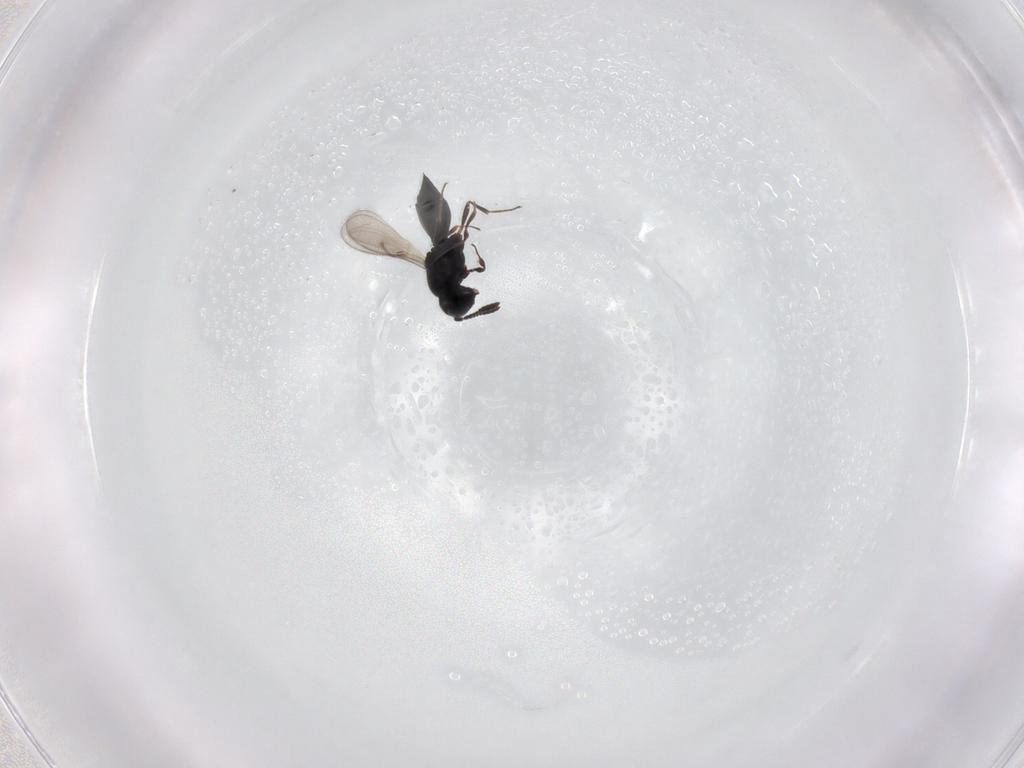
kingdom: Animalia
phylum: Arthropoda
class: Insecta
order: Hymenoptera
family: Scelionidae
